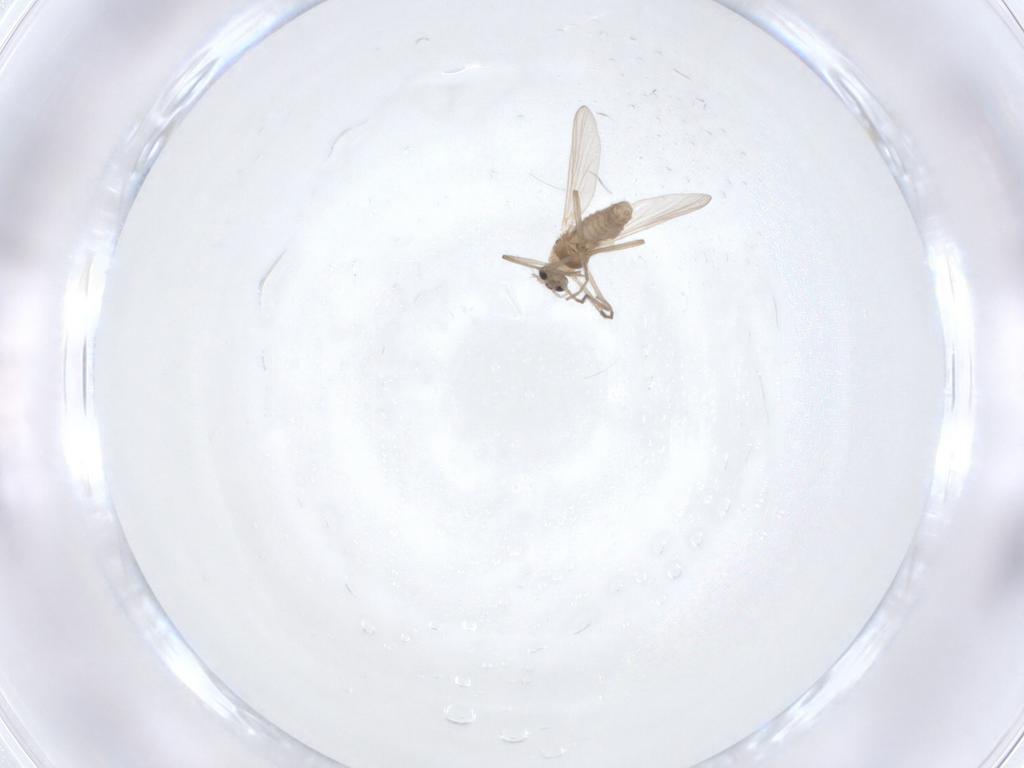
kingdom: Animalia
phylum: Arthropoda
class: Insecta
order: Diptera
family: Chironomidae
